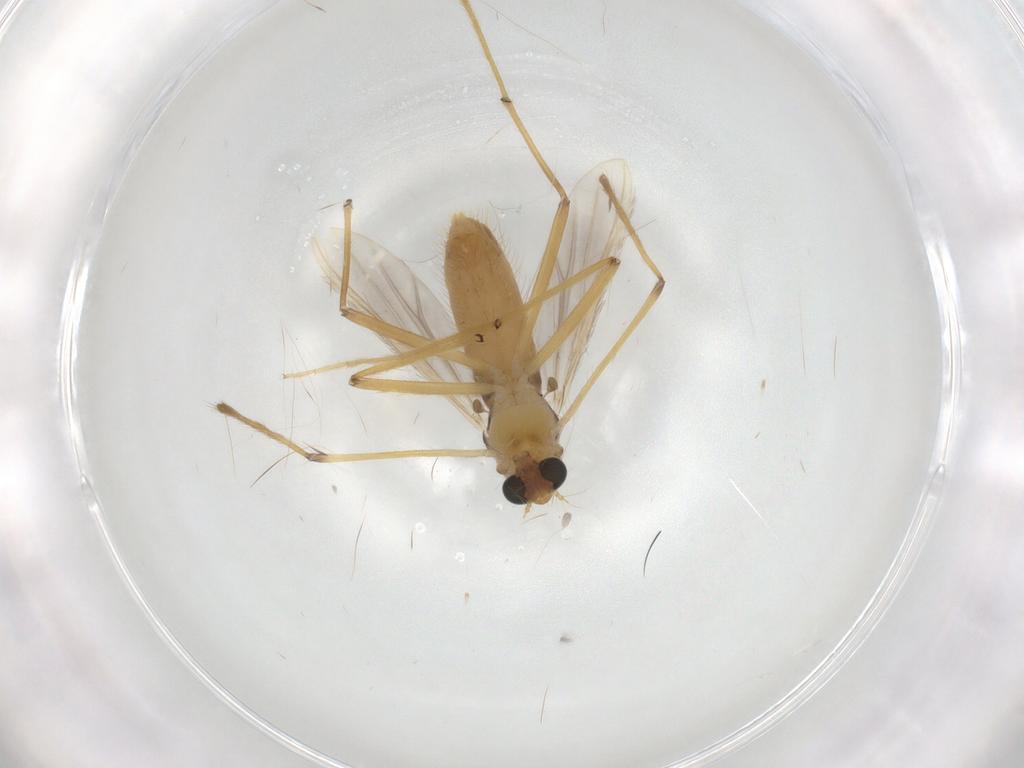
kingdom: Animalia
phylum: Arthropoda
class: Insecta
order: Diptera
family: Chironomidae
